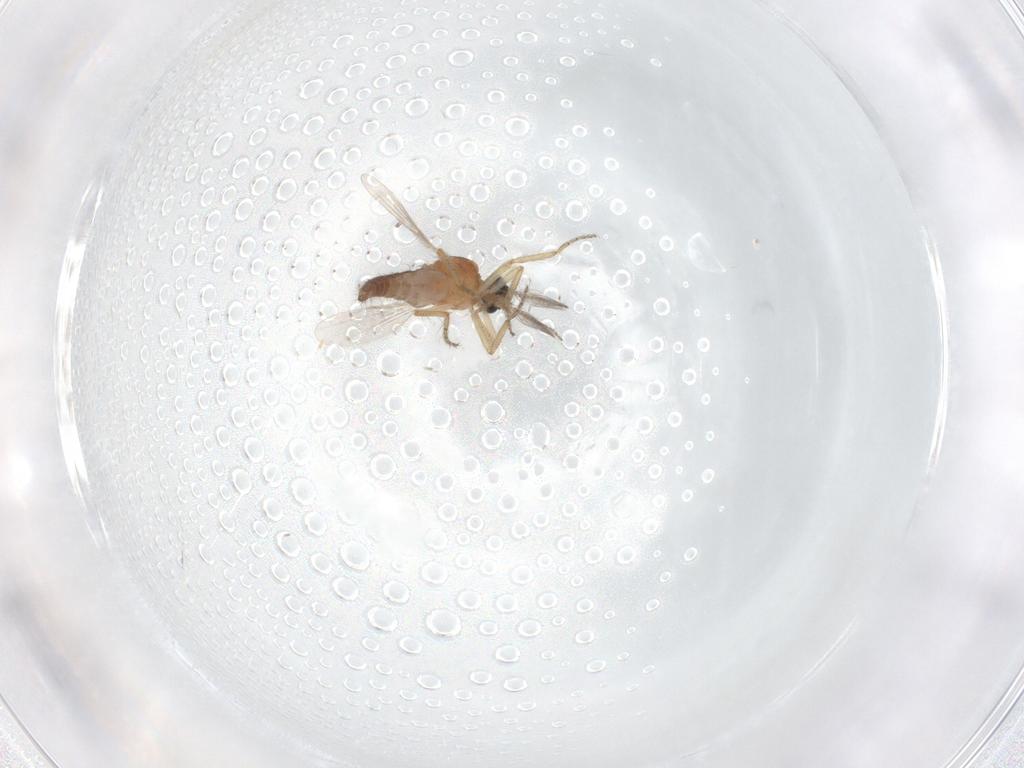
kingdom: Animalia
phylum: Arthropoda
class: Insecta
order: Diptera
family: Ceratopogonidae
